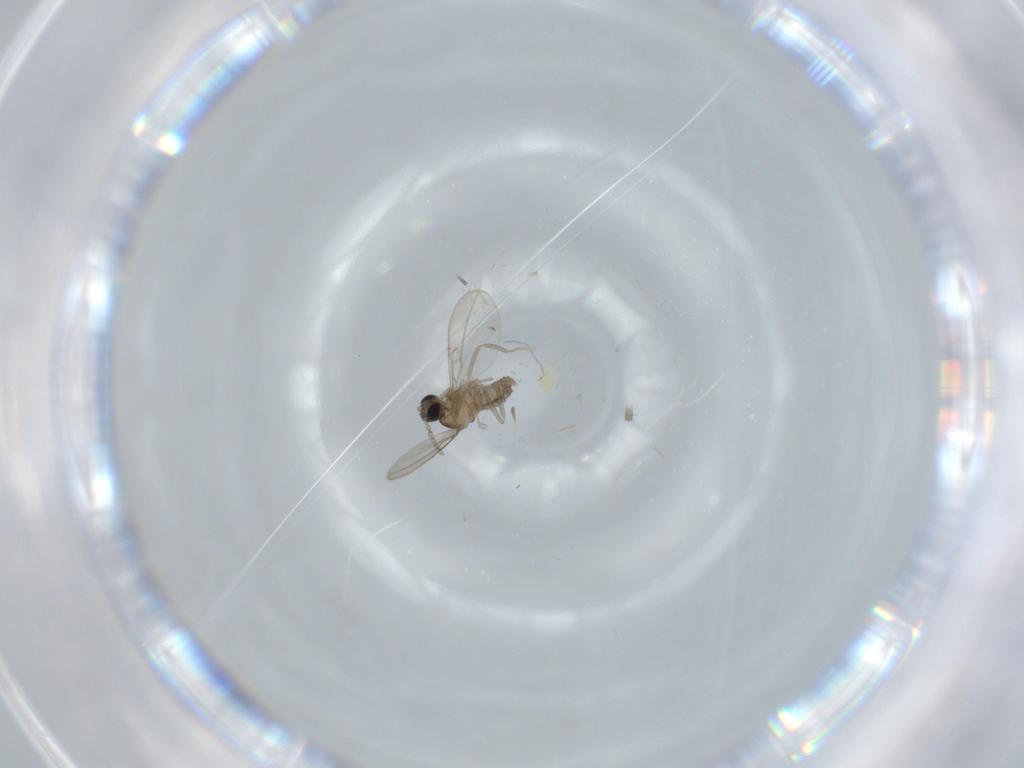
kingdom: Animalia
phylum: Arthropoda
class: Insecta
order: Diptera
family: Cecidomyiidae
